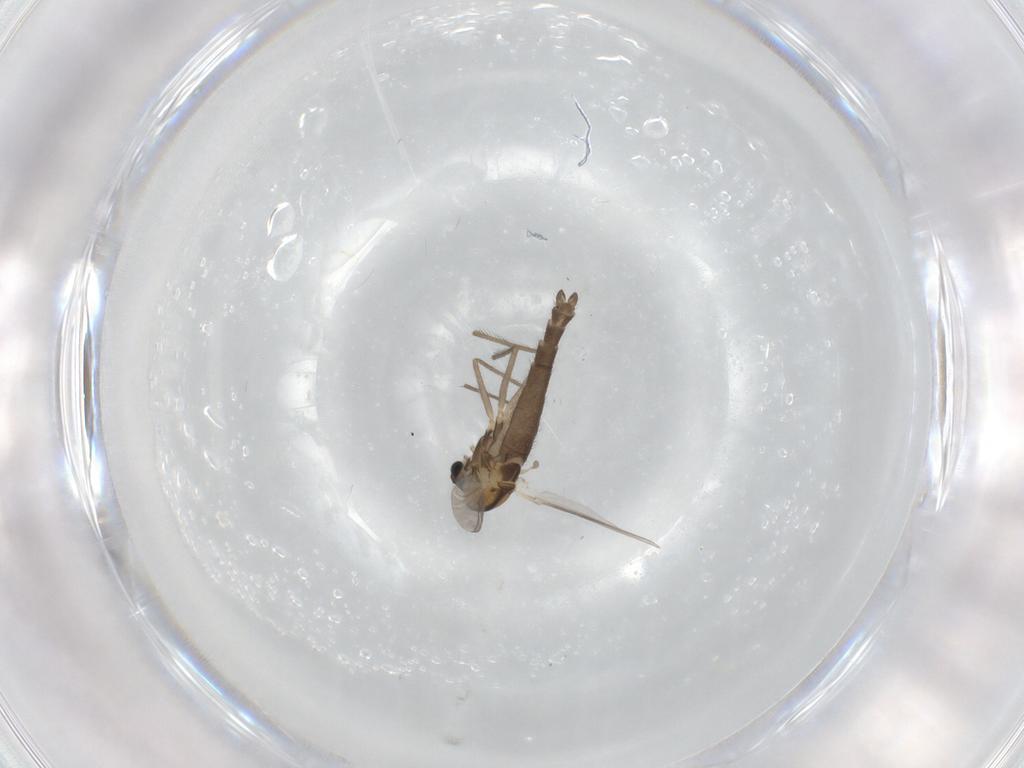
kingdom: Animalia
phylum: Arthropoda
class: Insecta
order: Diptera
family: Chironomidae
